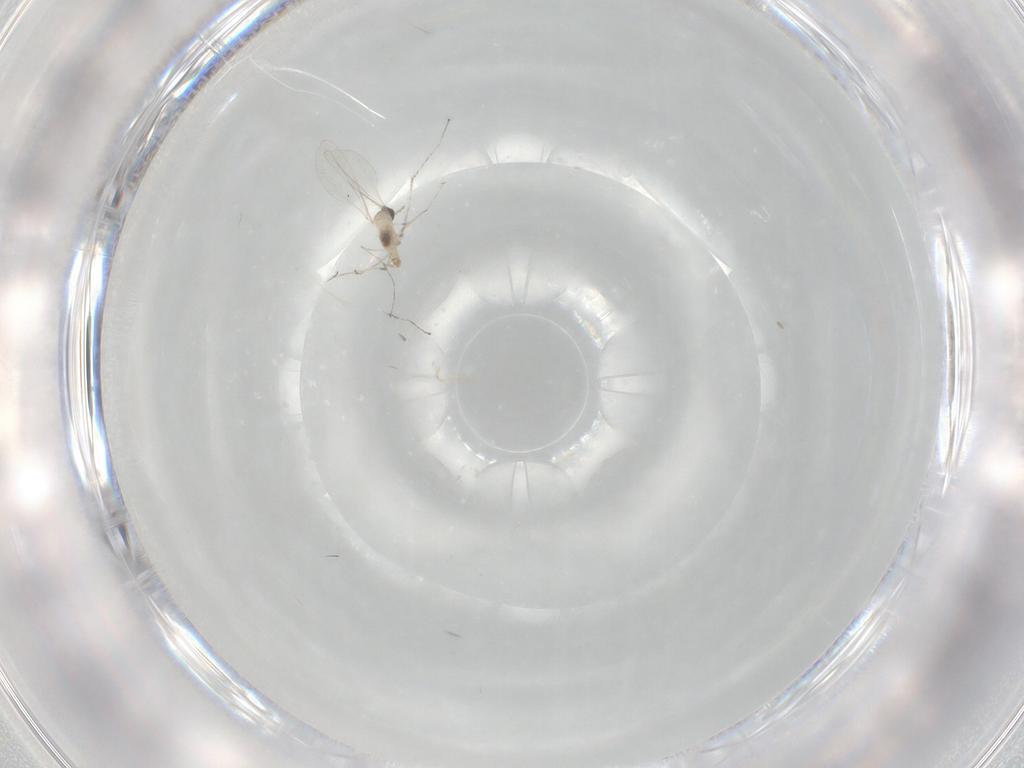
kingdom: Animalia
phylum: Arthropoda
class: Insecta
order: Diptera
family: Cecidomyiidae
